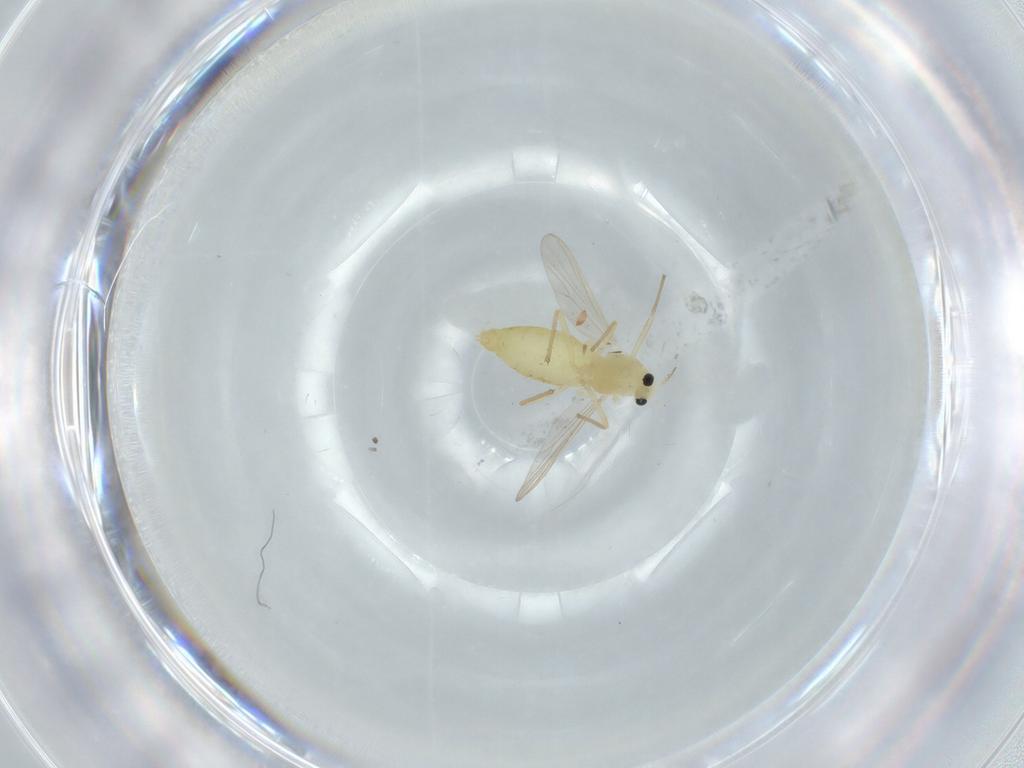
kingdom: Animalia
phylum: Arthropoda
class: Insecta
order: Diptera
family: Chironomidae
